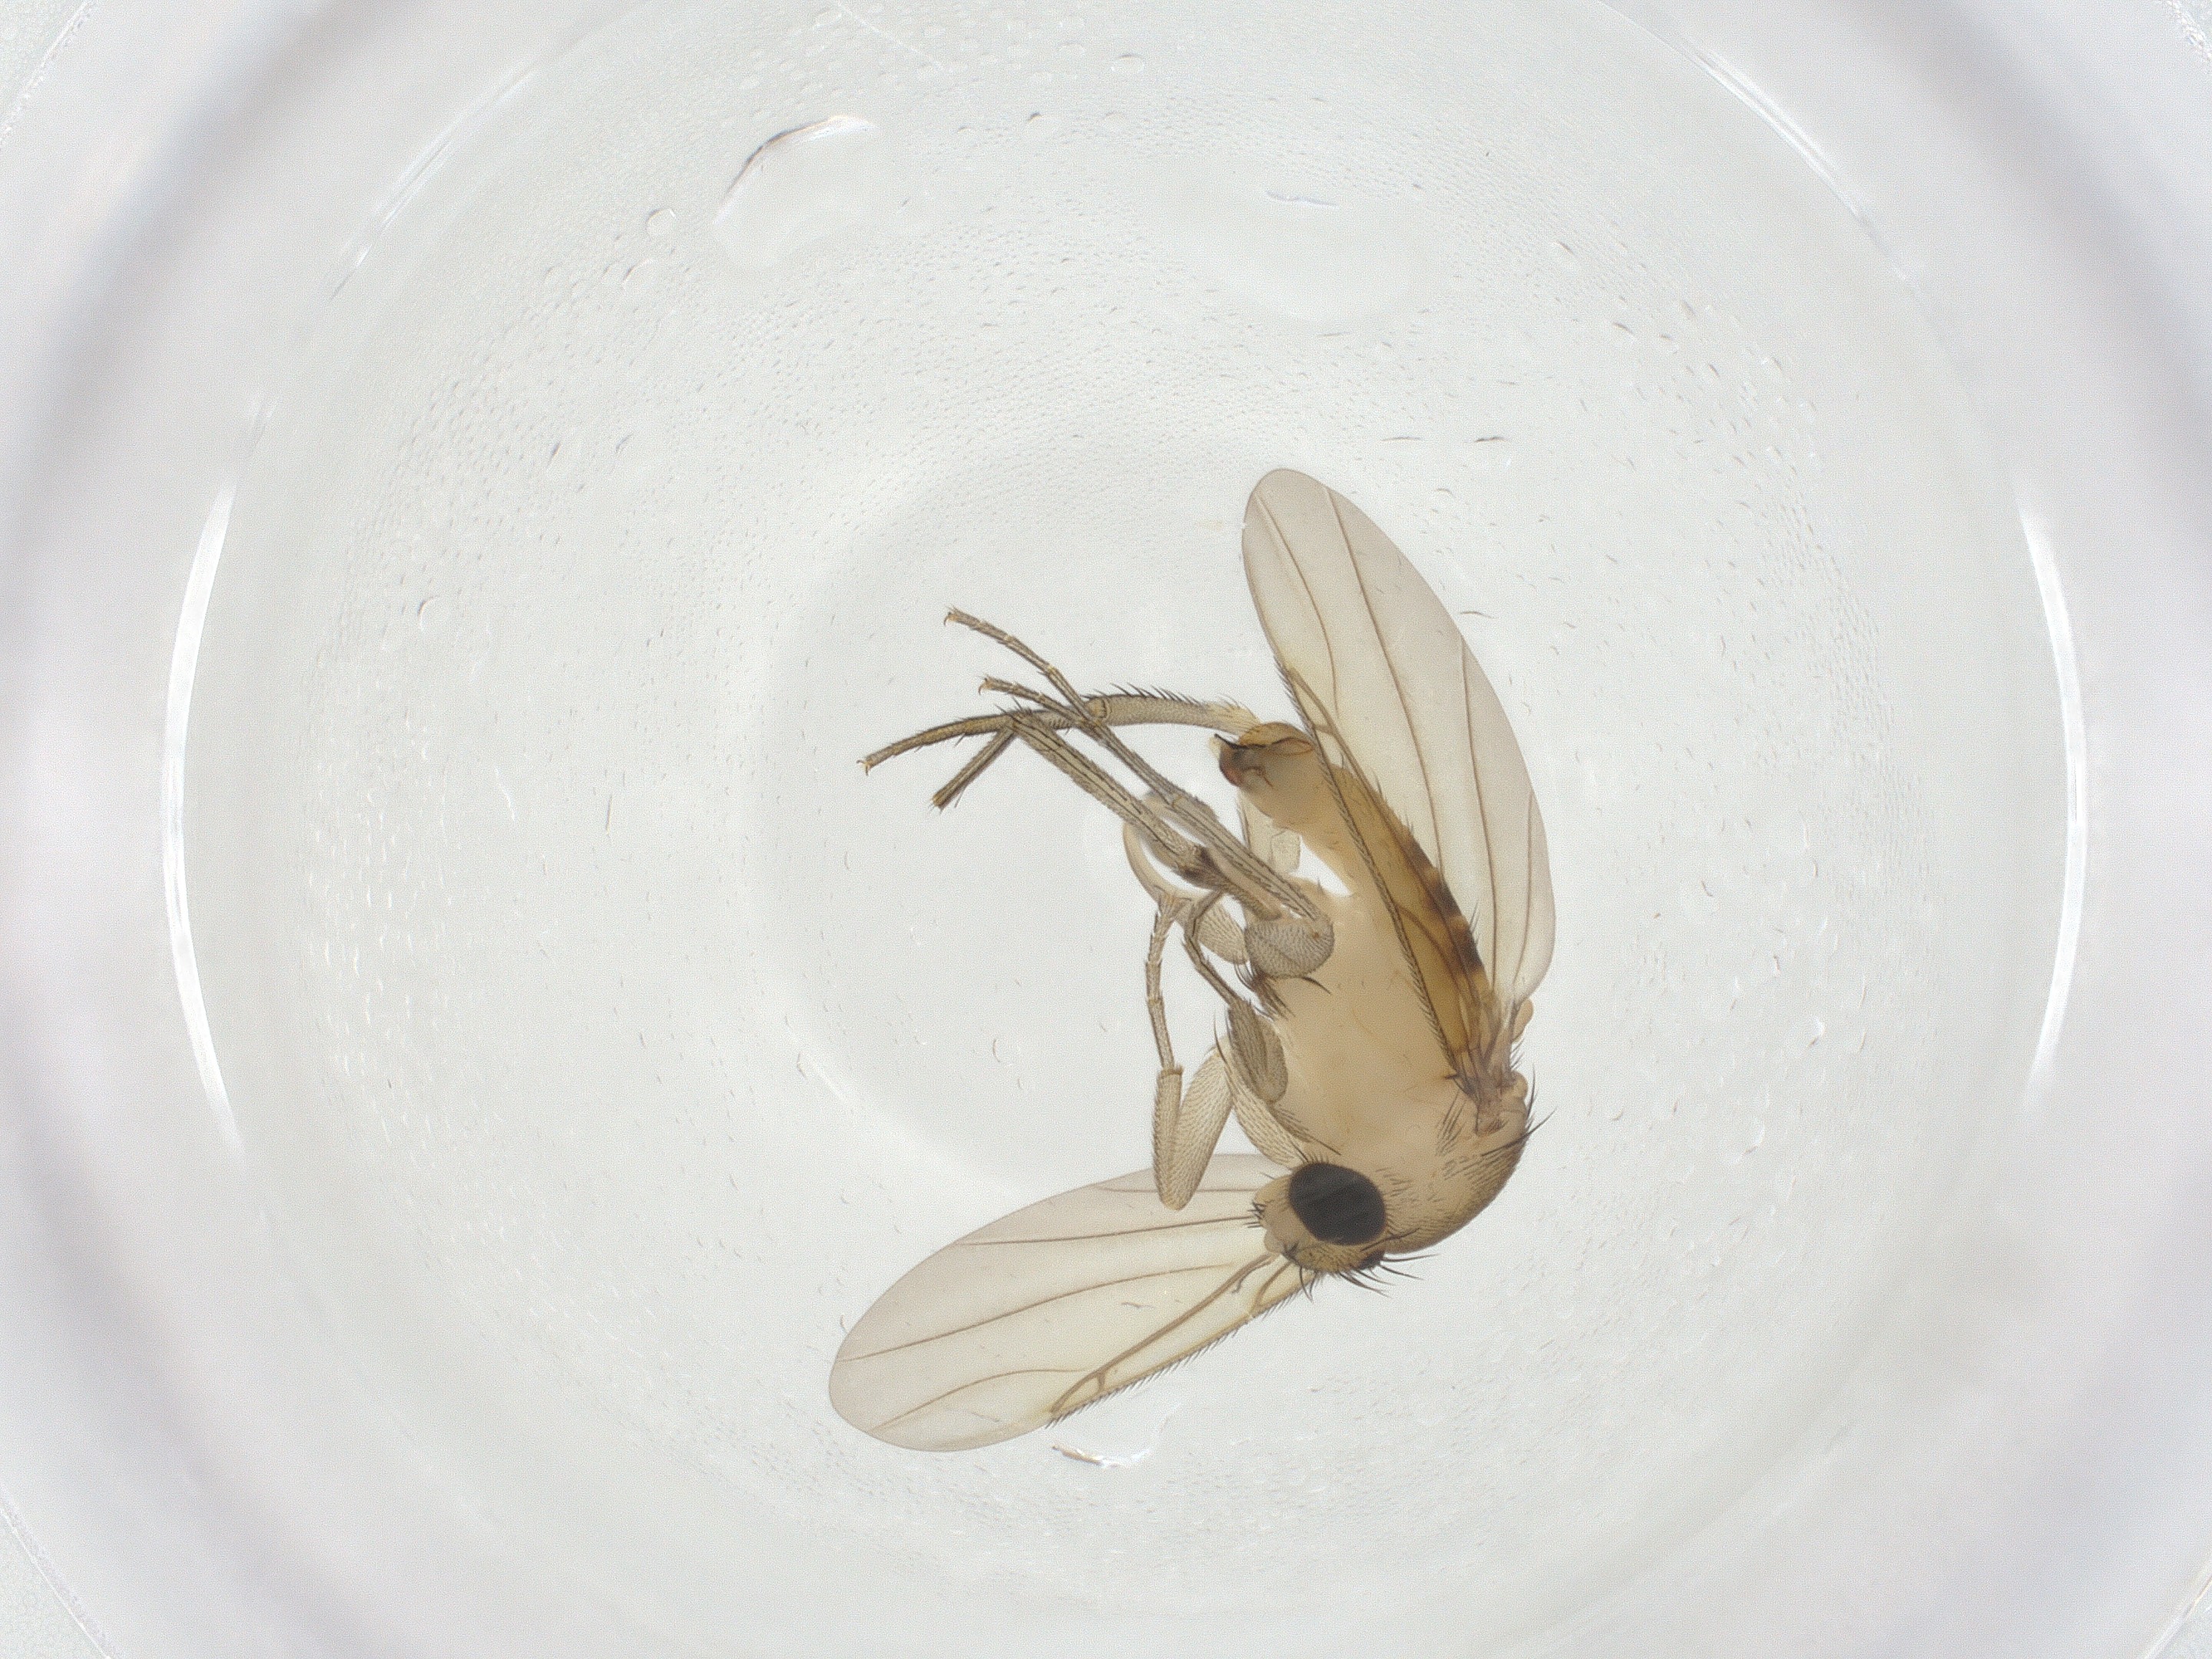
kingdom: Animalia
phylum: Arthropoda
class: Insecta
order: Diptera
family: Phoridae
